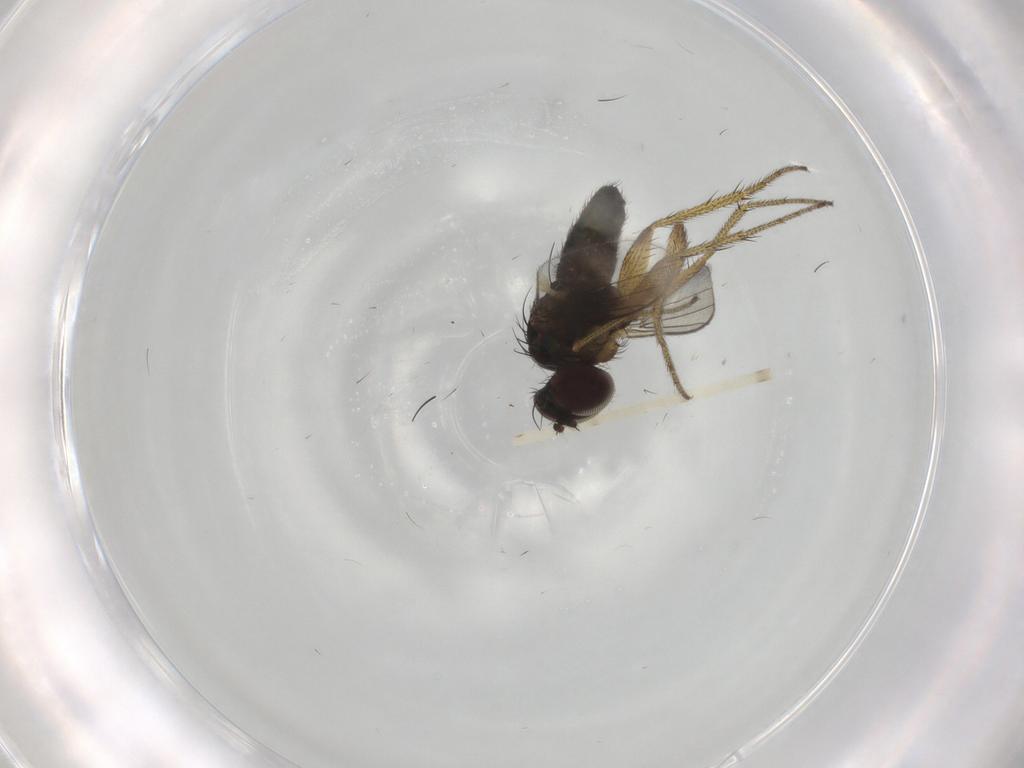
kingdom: Animalia
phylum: Arthropoda
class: Insecta
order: Diptera
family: Dolichopodidae
